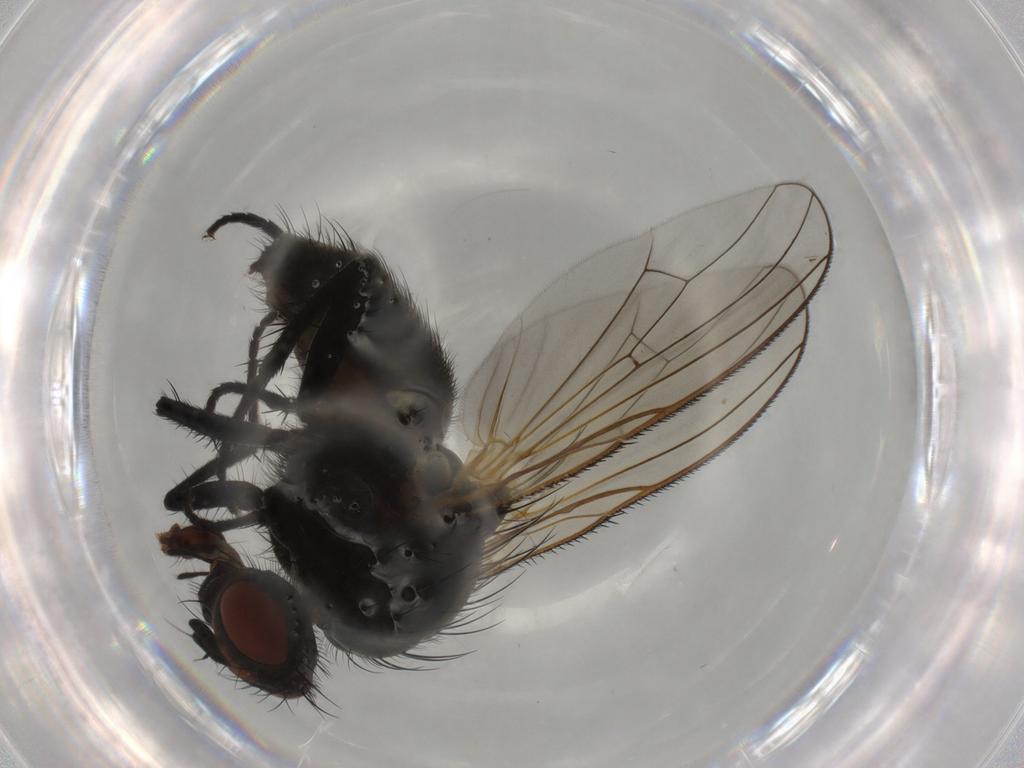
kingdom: Animalia
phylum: Arthropoda
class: Insecta
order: Diptera
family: Anthomyiidae
